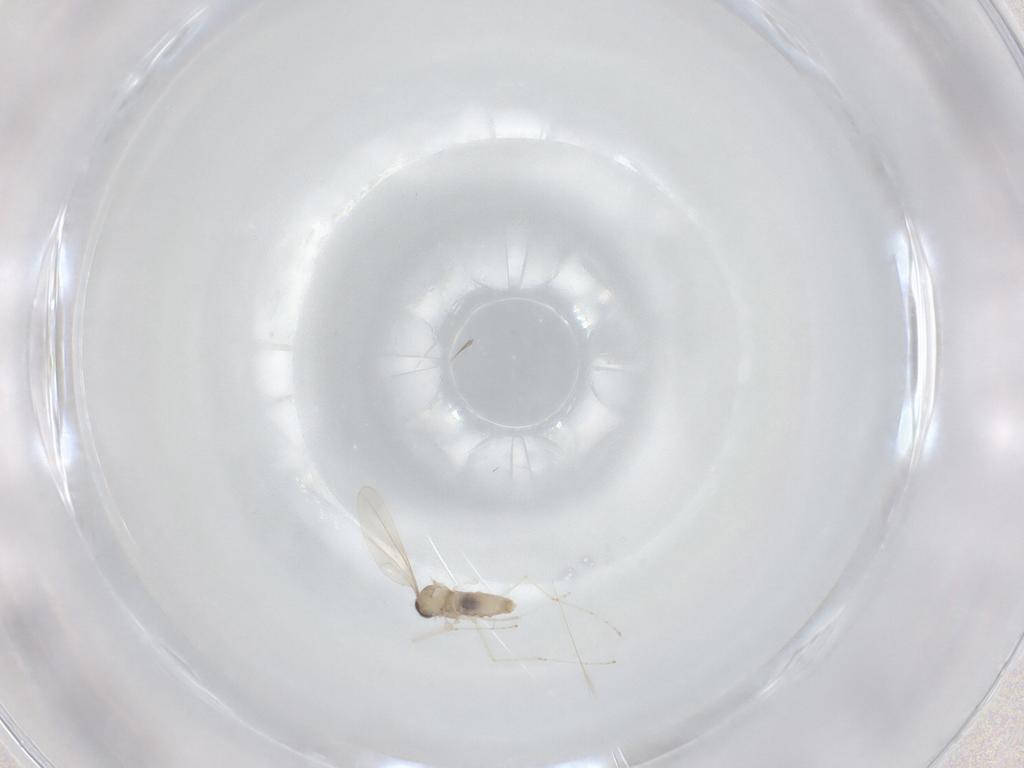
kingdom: Animalia
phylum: Arthropoda
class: Insecta
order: Diptera
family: Cecidomyiidae
